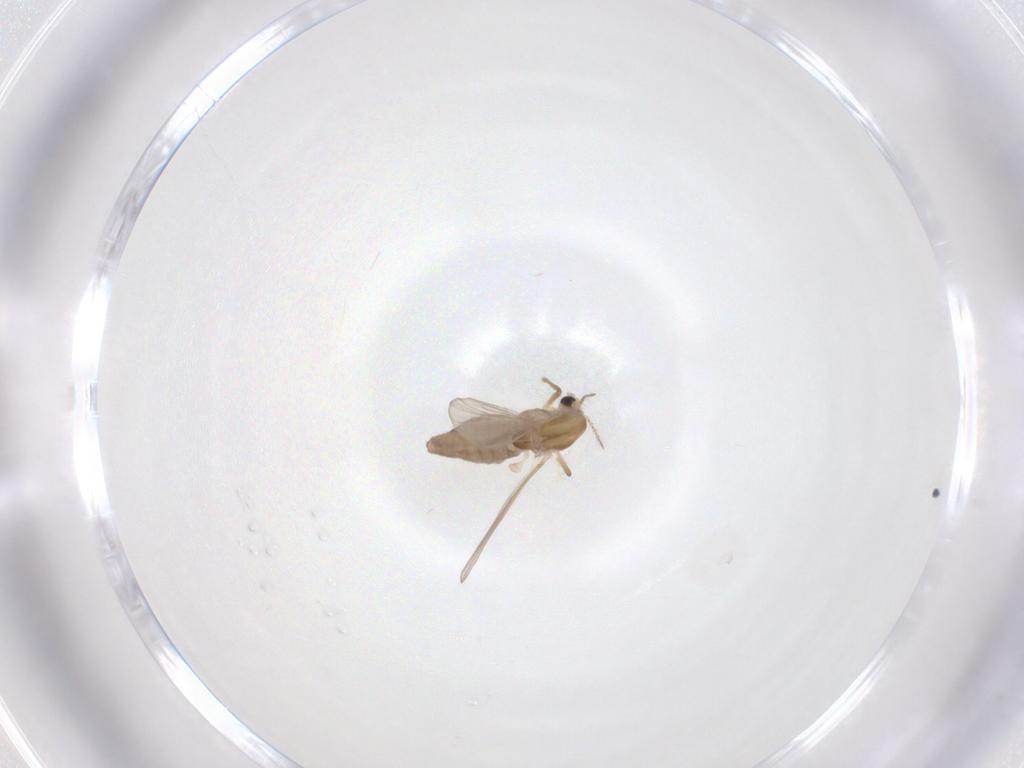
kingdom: Animalia
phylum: Arthropoda
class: Insecta
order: Diptera
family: Chironomidae
